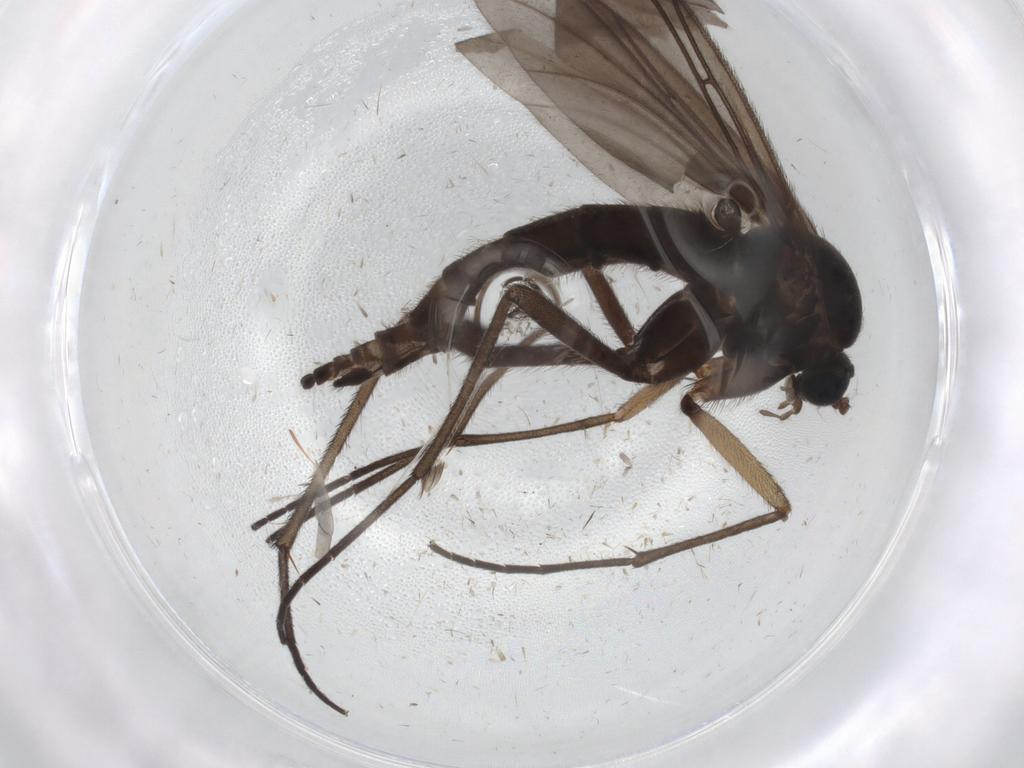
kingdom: Animalia
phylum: Arthropoda
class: Insecta
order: Diptera
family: Sciaridae
